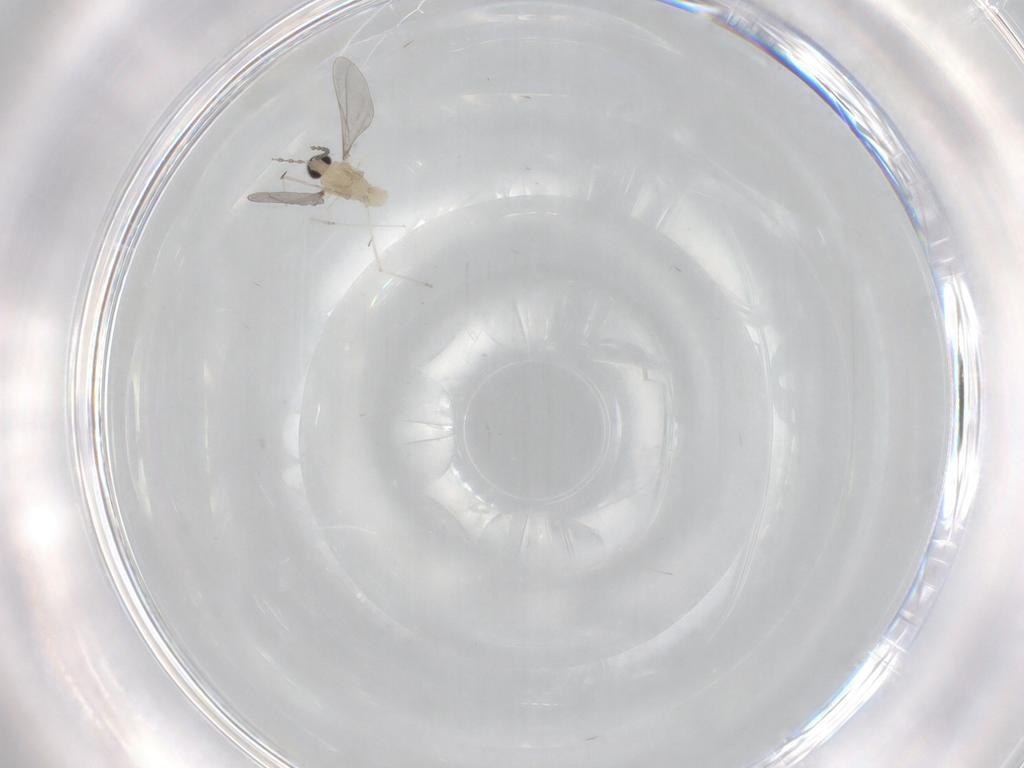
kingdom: Animalia
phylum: Arthropoda
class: Insecta
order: Diptera
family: Cecidomyiidae
